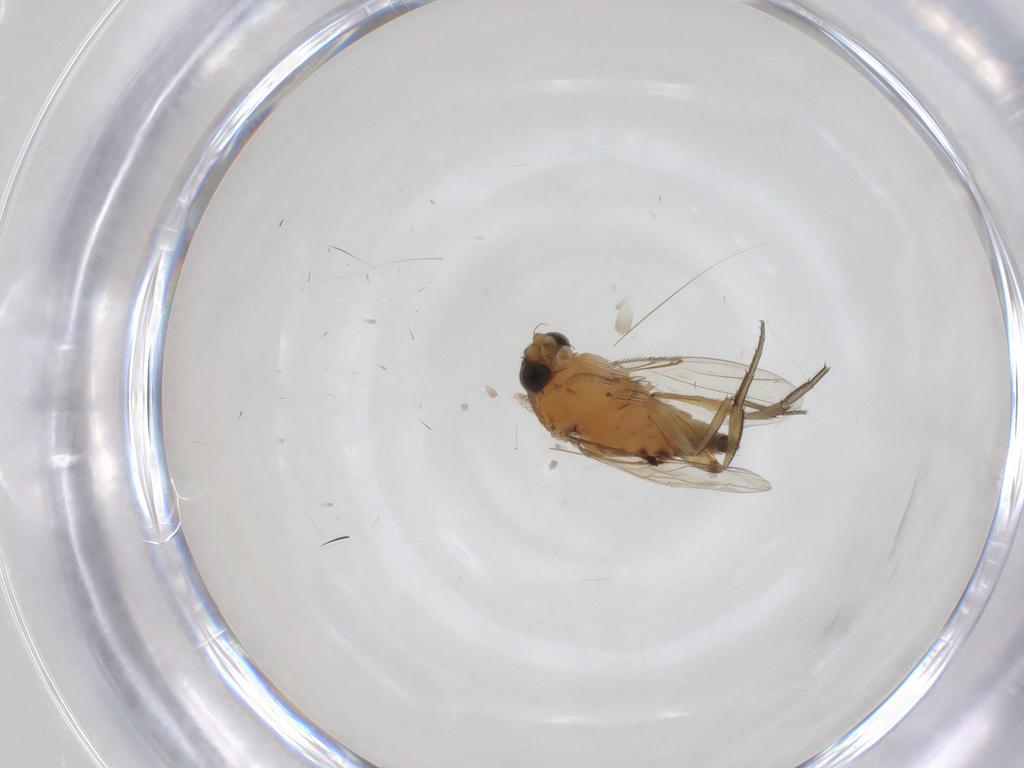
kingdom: Animalia
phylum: Arthropoda
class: Insecta
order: Diptera
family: Phoridae
